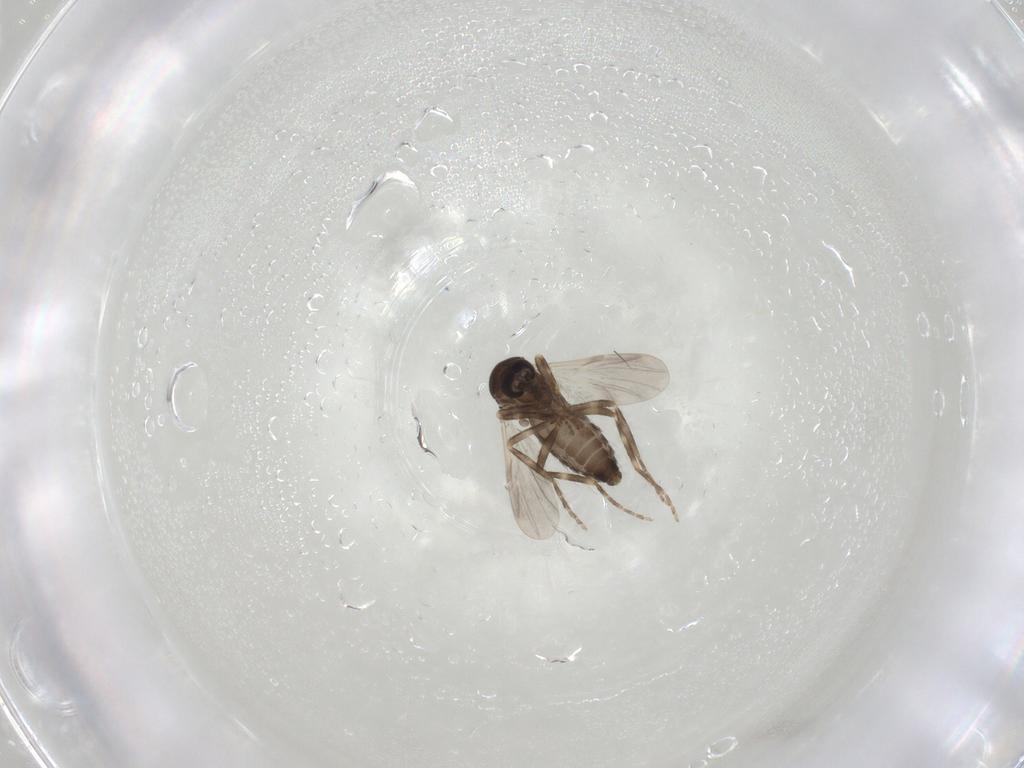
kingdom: Animalia
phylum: Arthropoda
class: Insecta
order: Diptera
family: Ceratopogonidae
